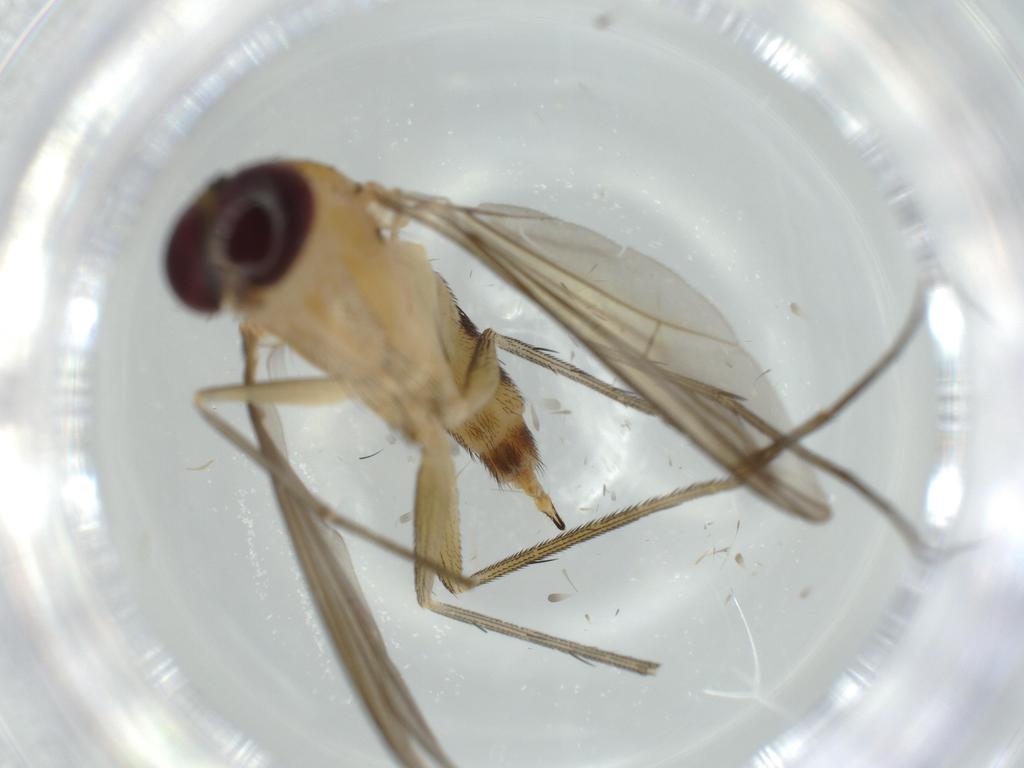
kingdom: Animalia
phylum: Arthropoda
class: Insecta
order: Diptera
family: Dolichopodidae
